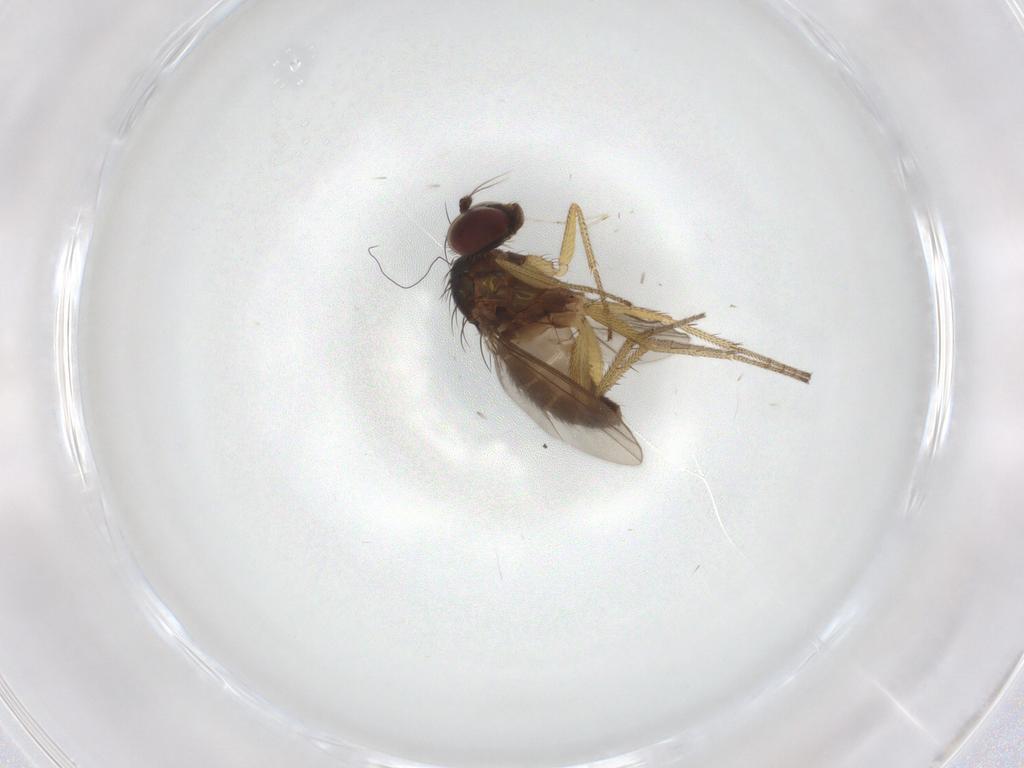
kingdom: Animalia
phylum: Arthropoda
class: Insecta
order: Diptera
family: Dolichopodidae
